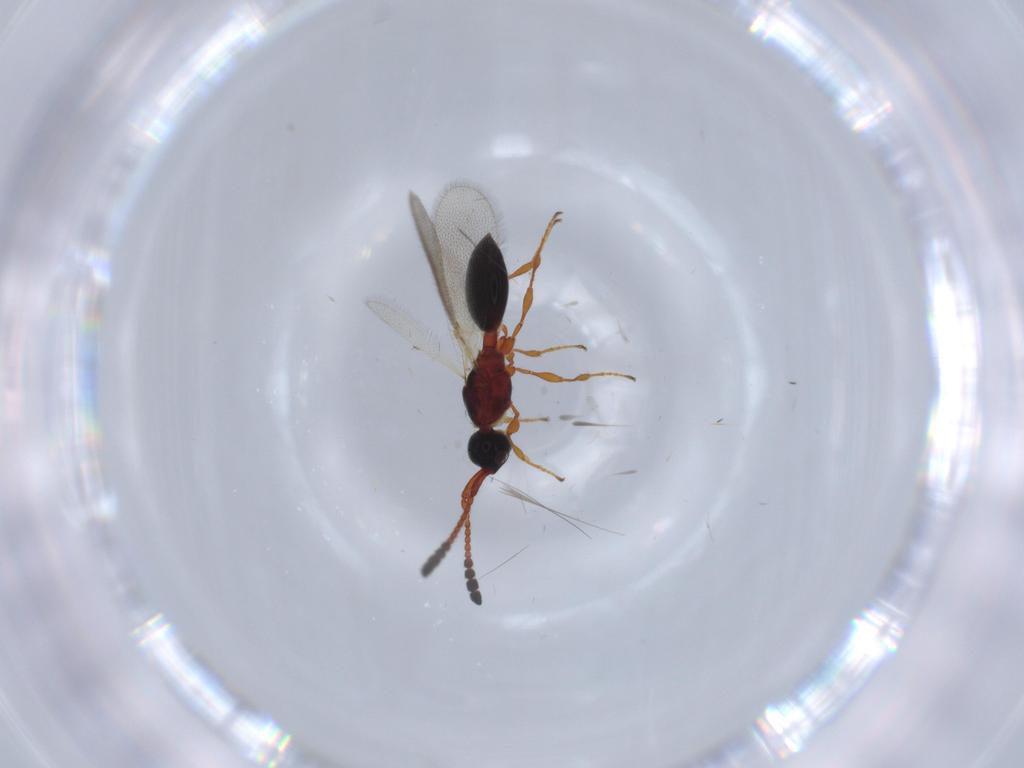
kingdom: Animalia
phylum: Arthropoda
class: Insecta
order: Hymenoptera
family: Diapriidae
